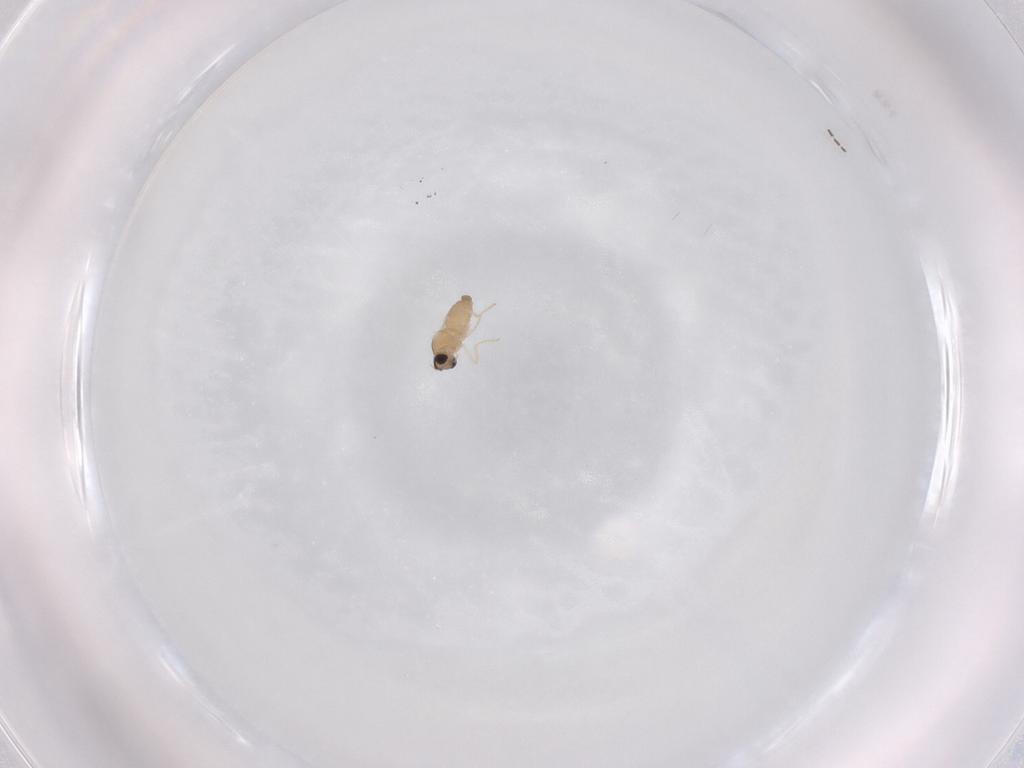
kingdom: Animalia
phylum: Arthropoda
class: Insecta
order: Diptera
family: Cecidomyiidae
